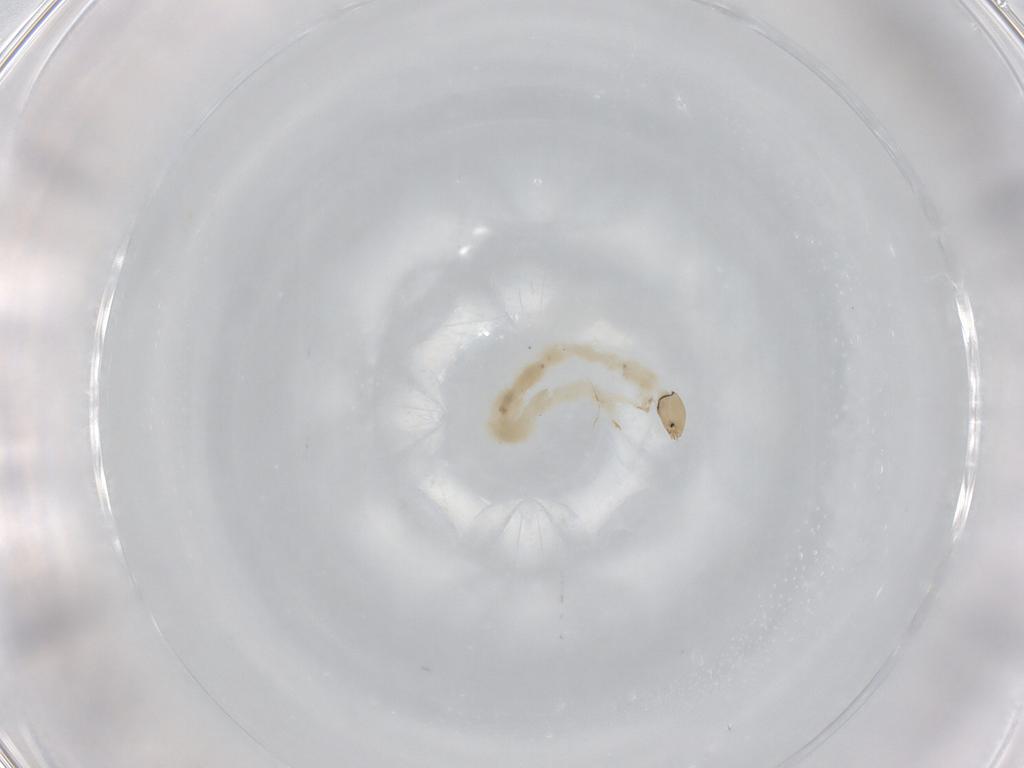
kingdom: Animalia
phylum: Arthropoda
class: Insecta
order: Diptera
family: Chironomidae
